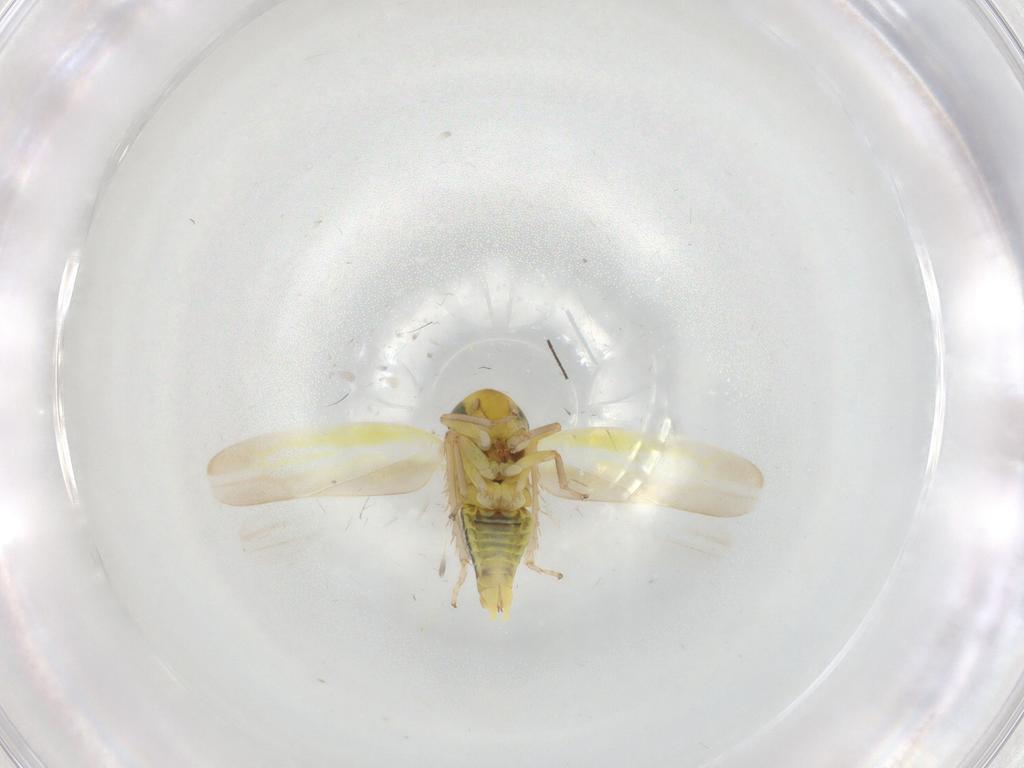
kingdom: Animalia
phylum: Arthropoda
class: Insecta
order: Hemiptera
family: Cicadellidae
